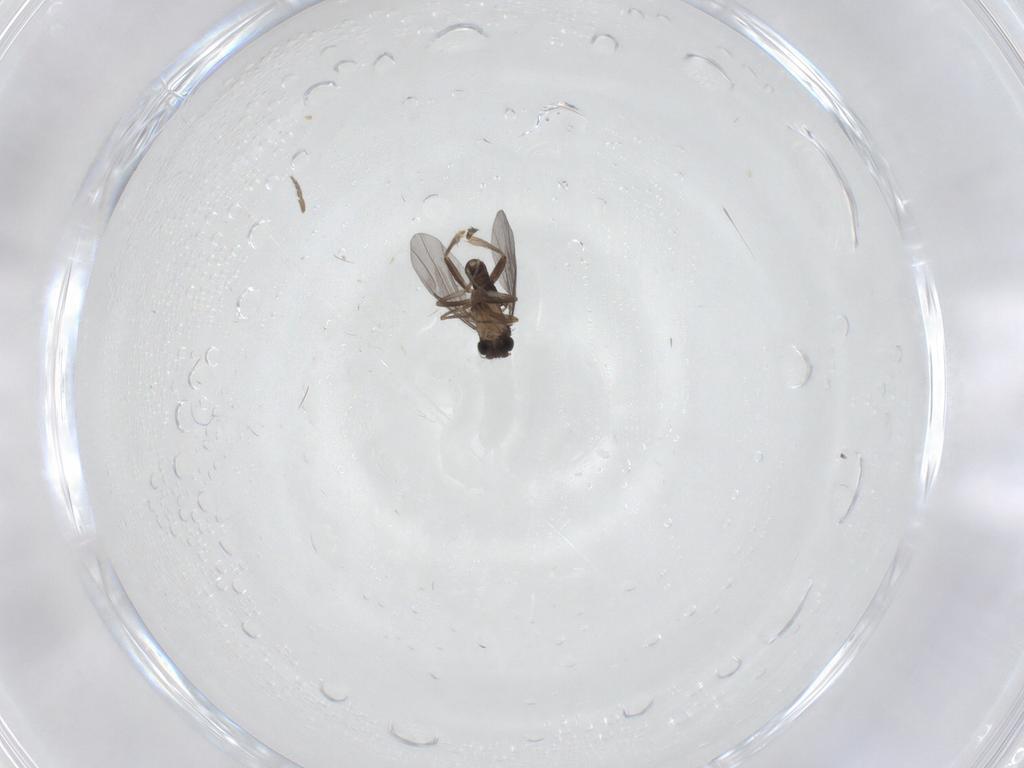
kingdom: Animalia
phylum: Arthropoda
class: Insecta
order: Diptera
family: Cecidomyiidae
